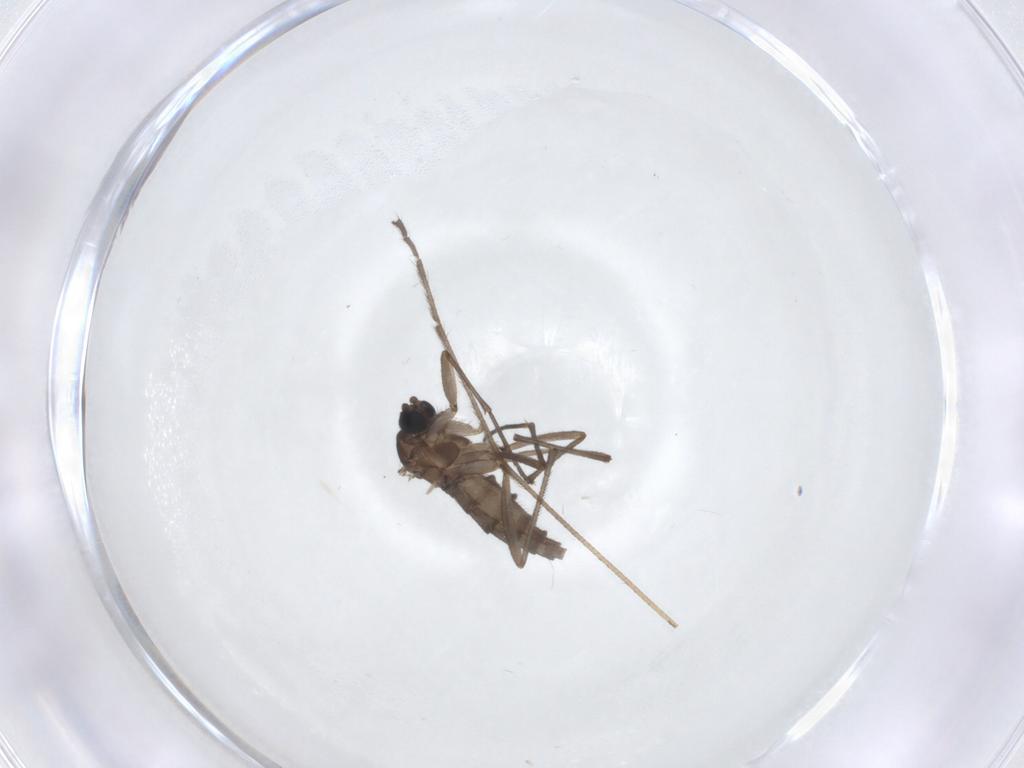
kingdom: Animalia
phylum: Arthropoda
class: Insecta
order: Diptera
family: Sciaridae
